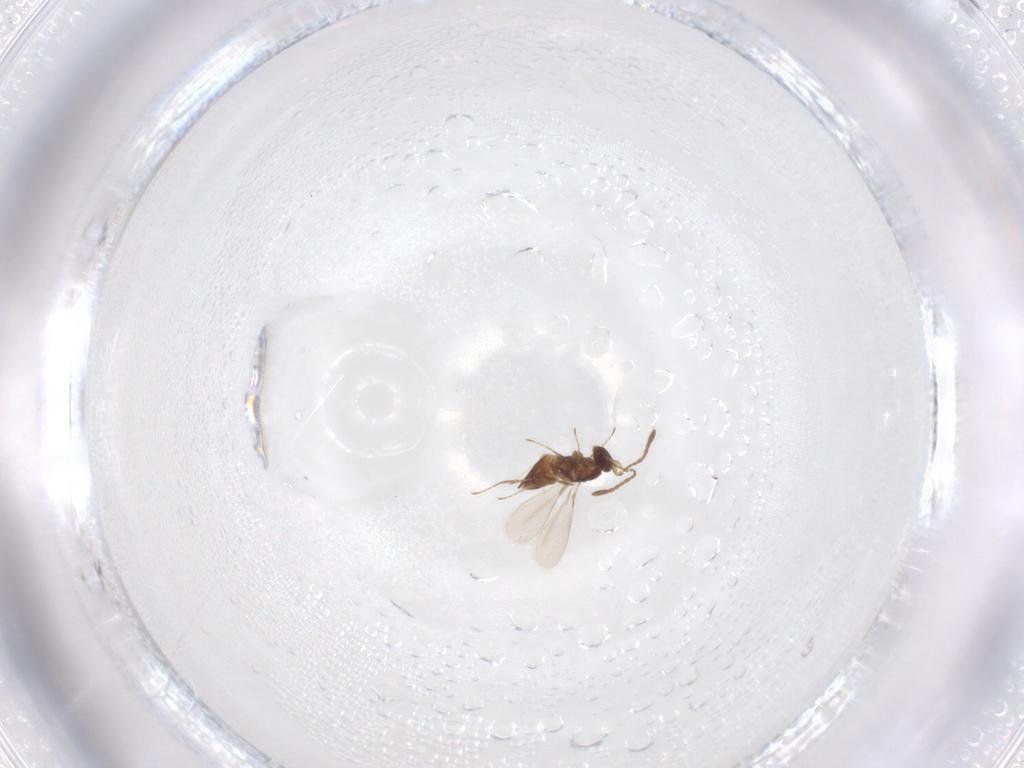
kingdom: Animalia
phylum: Arthropoda
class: Insecta
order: Hymenoptera
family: Mymaridae
